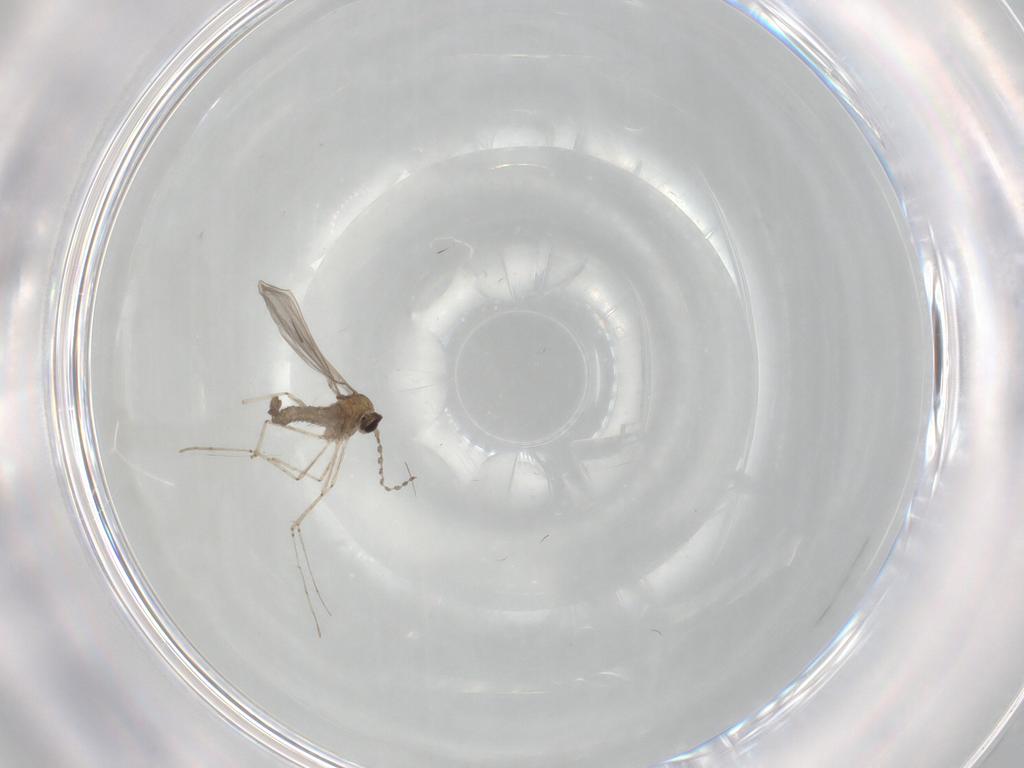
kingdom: Animalia
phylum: Arthropoda
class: Insecta
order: Diptera
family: Cecidomyiidae
